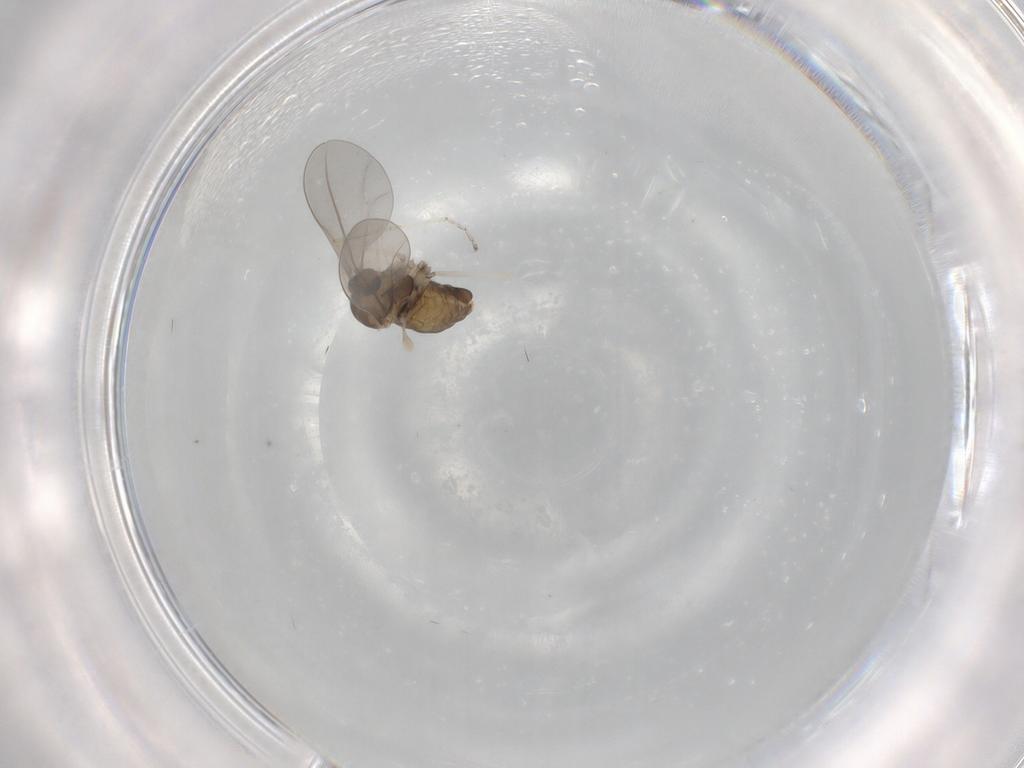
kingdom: Animalia
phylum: Arthropoda
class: Insecta
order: Diptera
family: Cecidomyiidae
